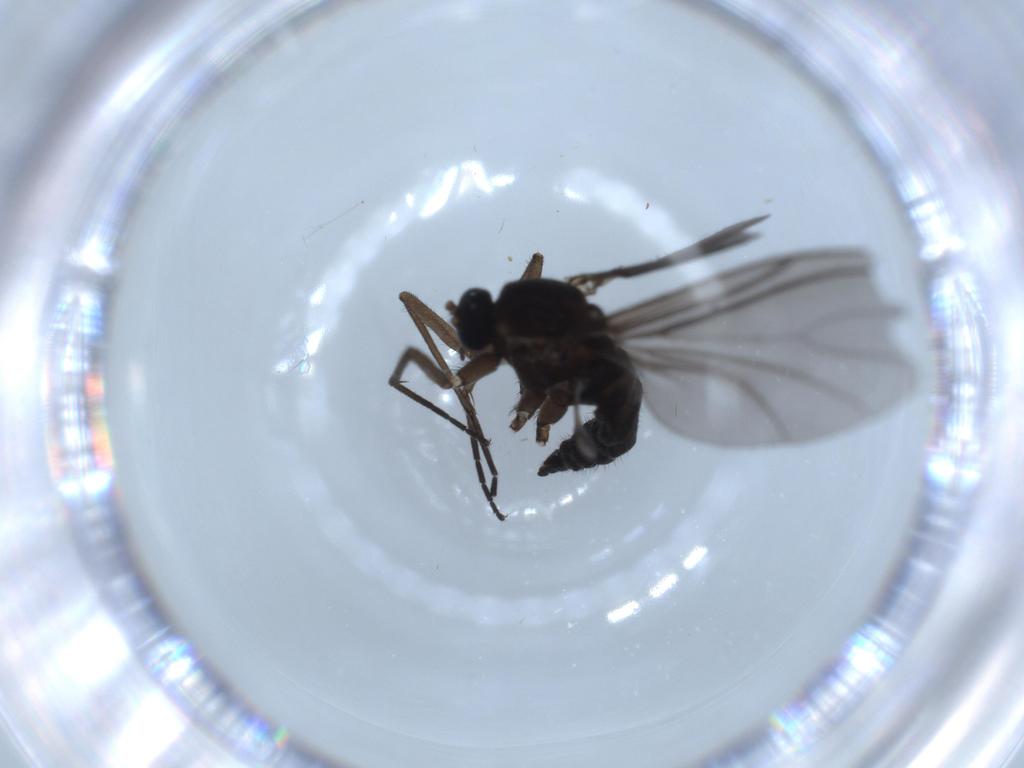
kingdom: Animalia
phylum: Arthropoda
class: Insecta
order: Diptera
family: Sciaridae
